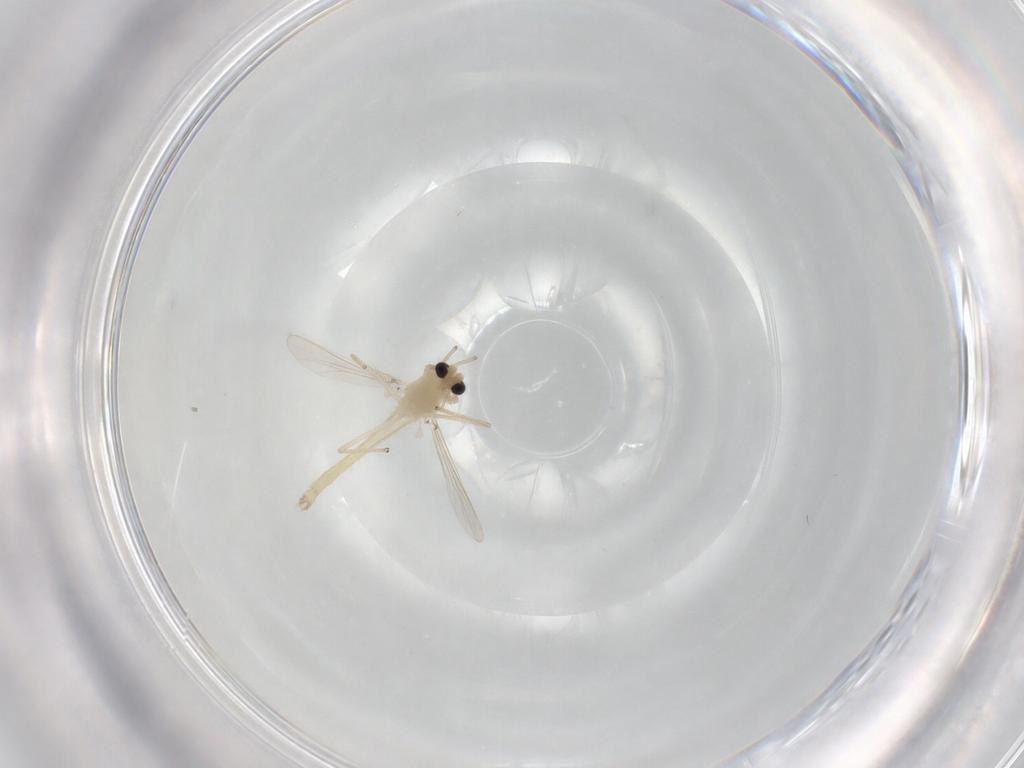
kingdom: Animalia
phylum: Arthropoda
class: Insecta
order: Diptera
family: Chironomidae
